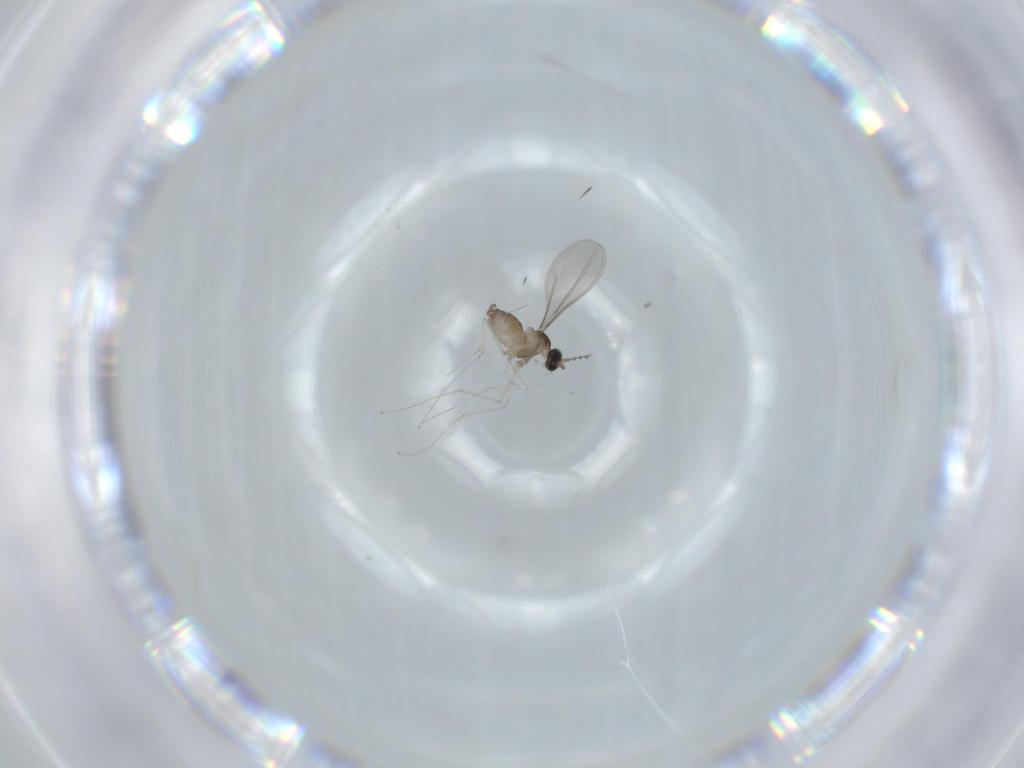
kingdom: Animalia
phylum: Arthropoda
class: Insecta
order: Diptera
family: Cecidomyiidae
